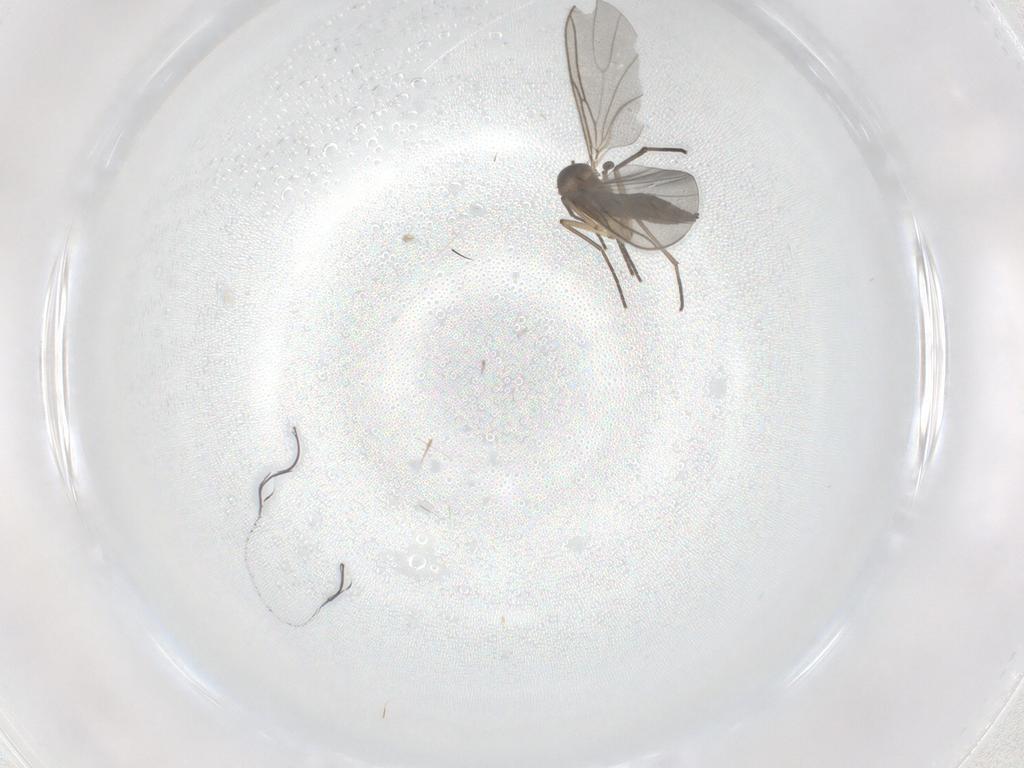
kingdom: Animalia
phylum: Arthropoda
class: Insecta
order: Diptera
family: Sciaridae
